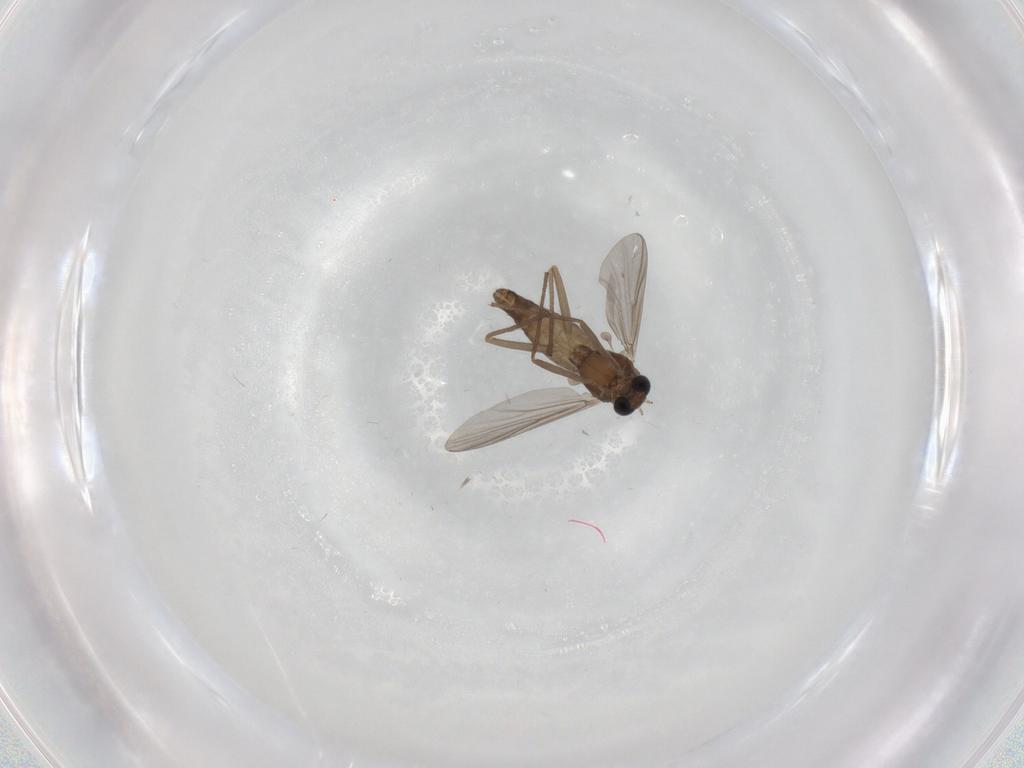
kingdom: Animalia
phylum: Arthropoda
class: Insecta
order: Diptera
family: Chironomidae
